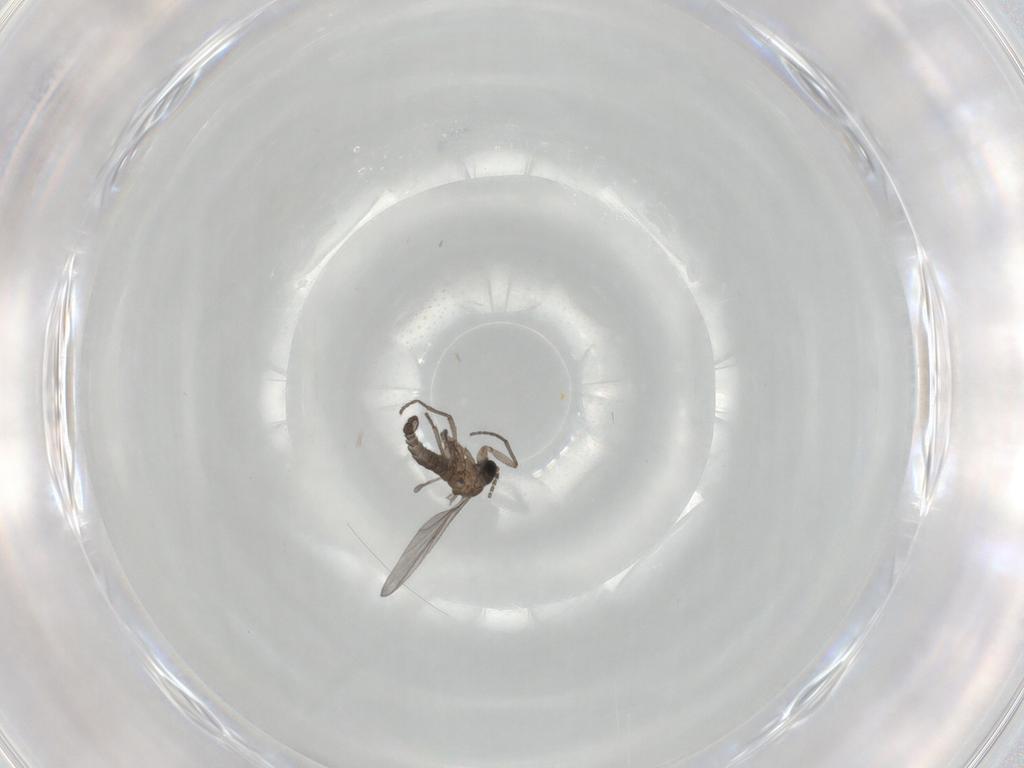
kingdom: Animalia
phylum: Arthropoda
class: Insecta
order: Diptera
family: Sciaridae
